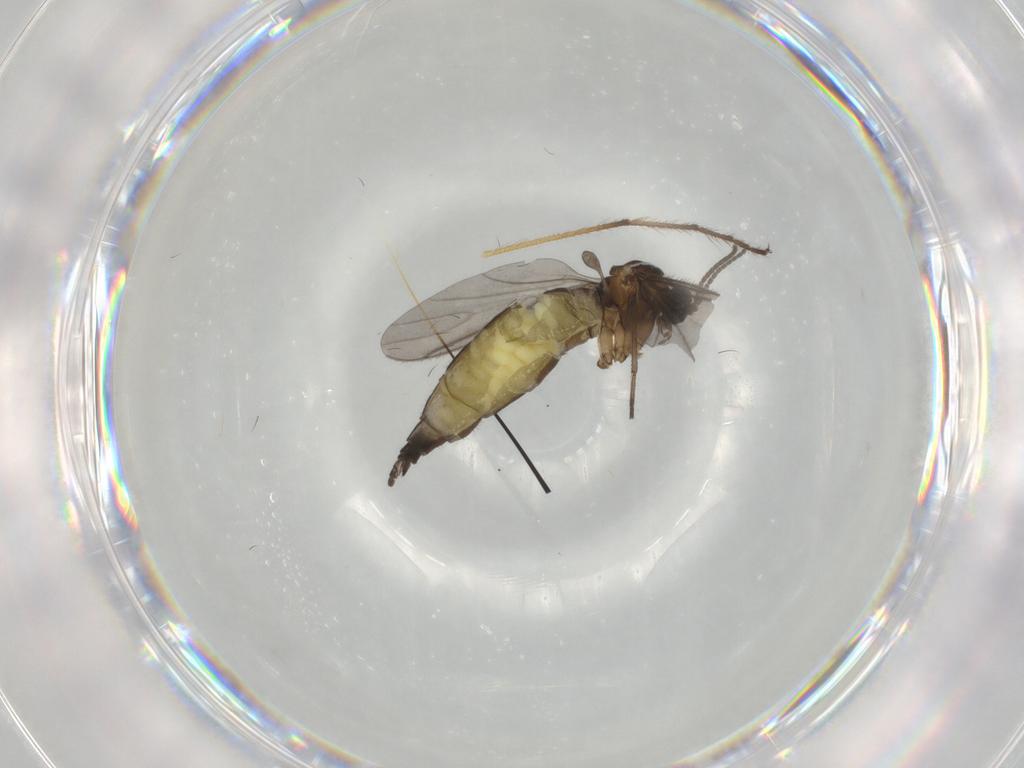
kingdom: Animalia
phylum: Arthropoda
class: Insecta
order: Diptera
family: Sciaridae
